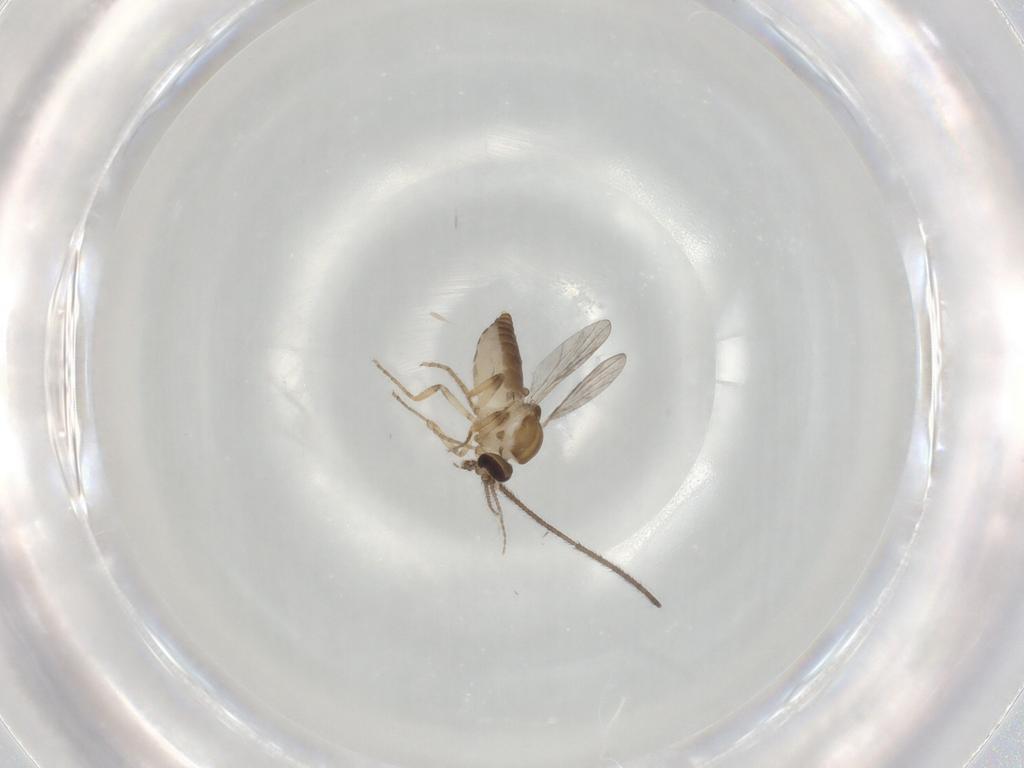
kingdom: Animalia
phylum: Arthropoda
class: Insecta
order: Diptera
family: Ceratopogonidae
